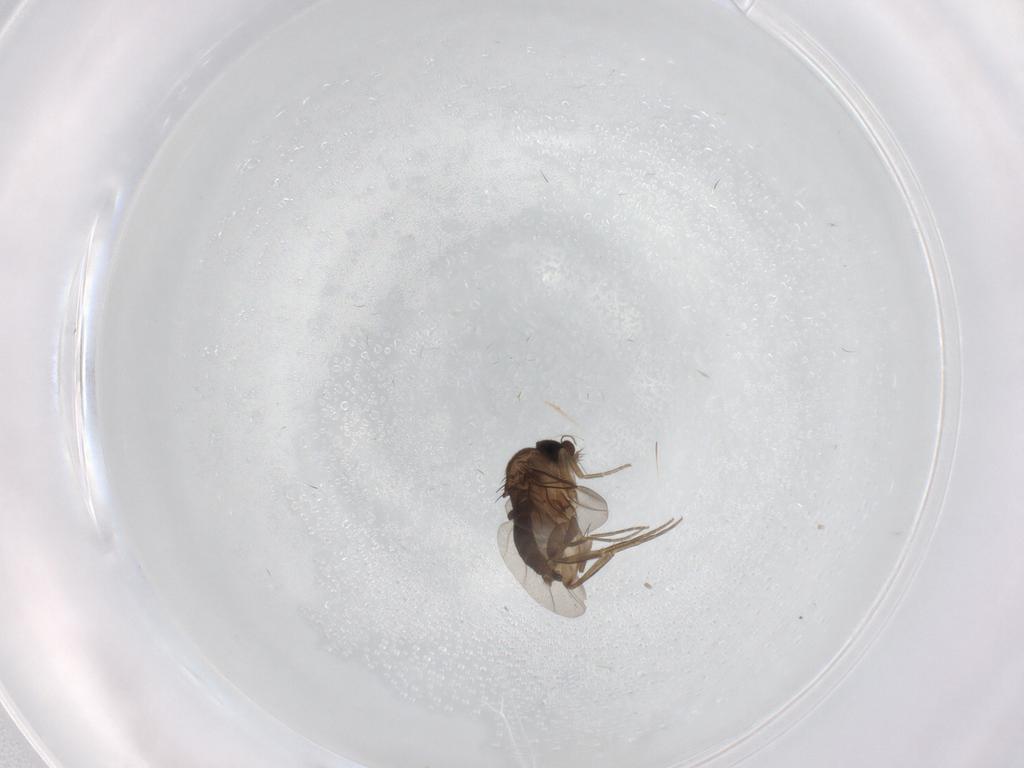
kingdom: Animalia
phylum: Arthropoda
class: Insecta
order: Diptera
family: Phoridae
